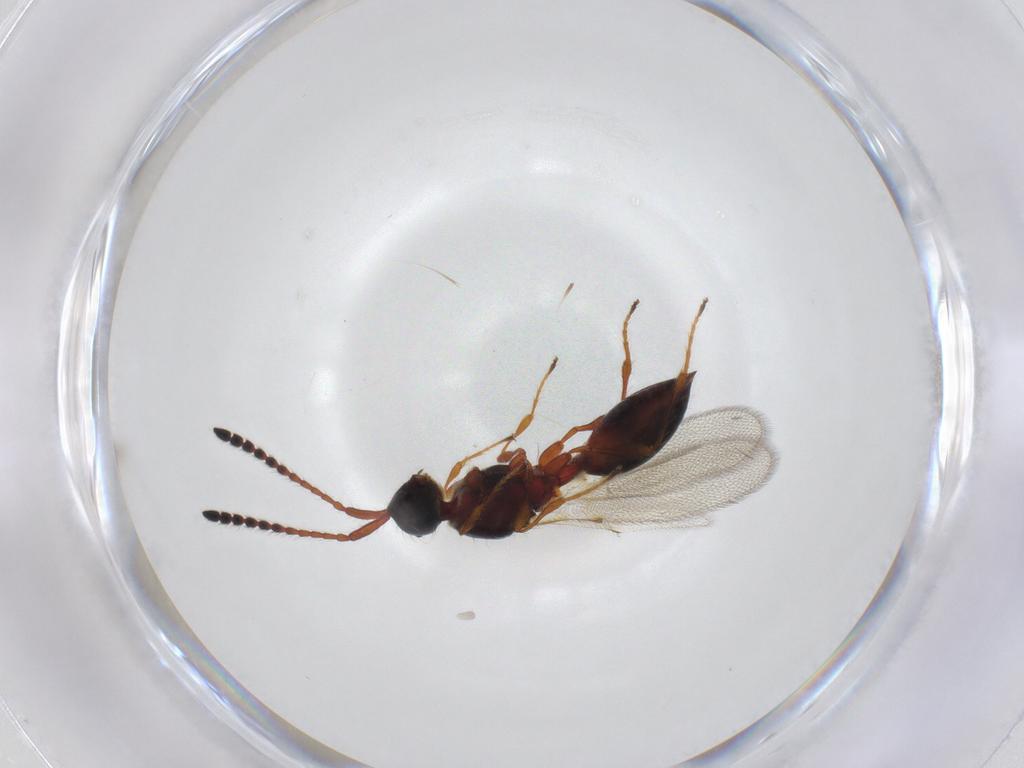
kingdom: Animalia
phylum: Arthropoda
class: Insecta
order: Hymenoptera
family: Diapriidae
